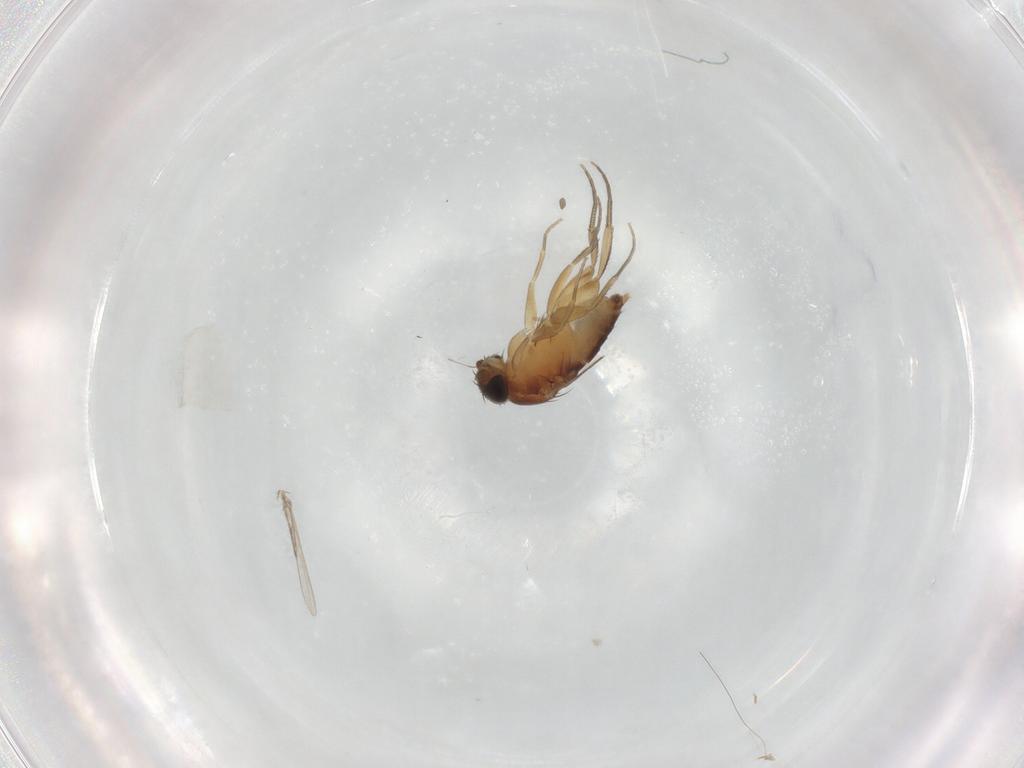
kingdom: Animalia
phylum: Arthropoda
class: Insecta
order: Diptera
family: Phoridae
